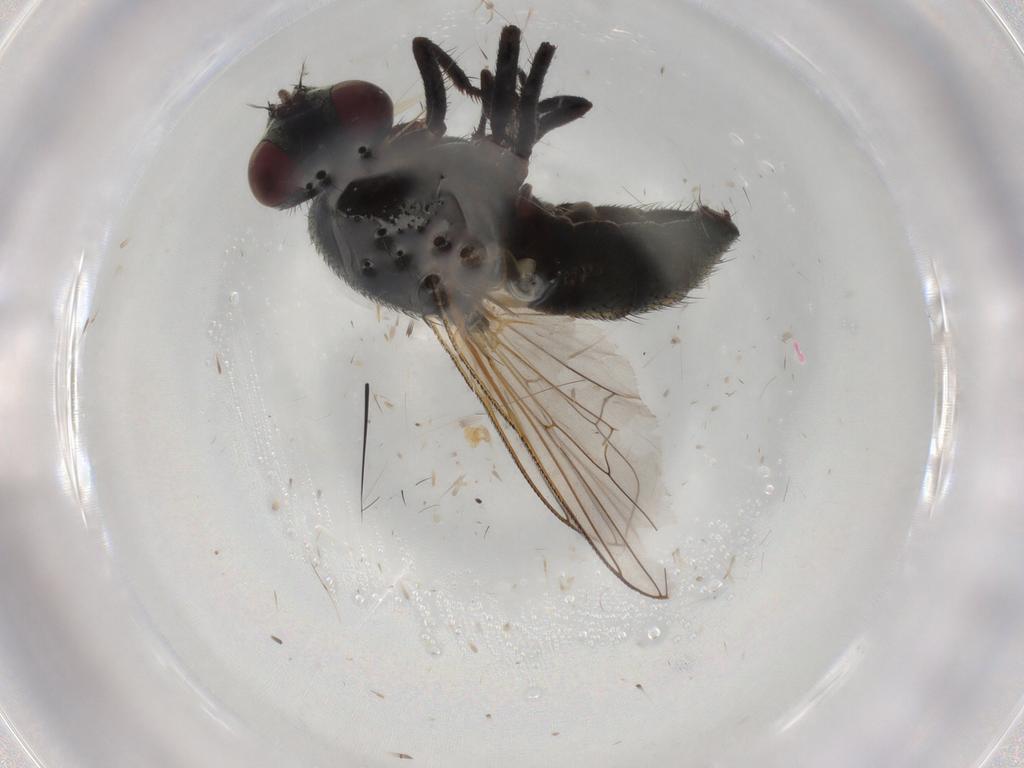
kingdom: Animalia
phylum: Arthropoda
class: Insecta
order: Diptera
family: Muscidae
